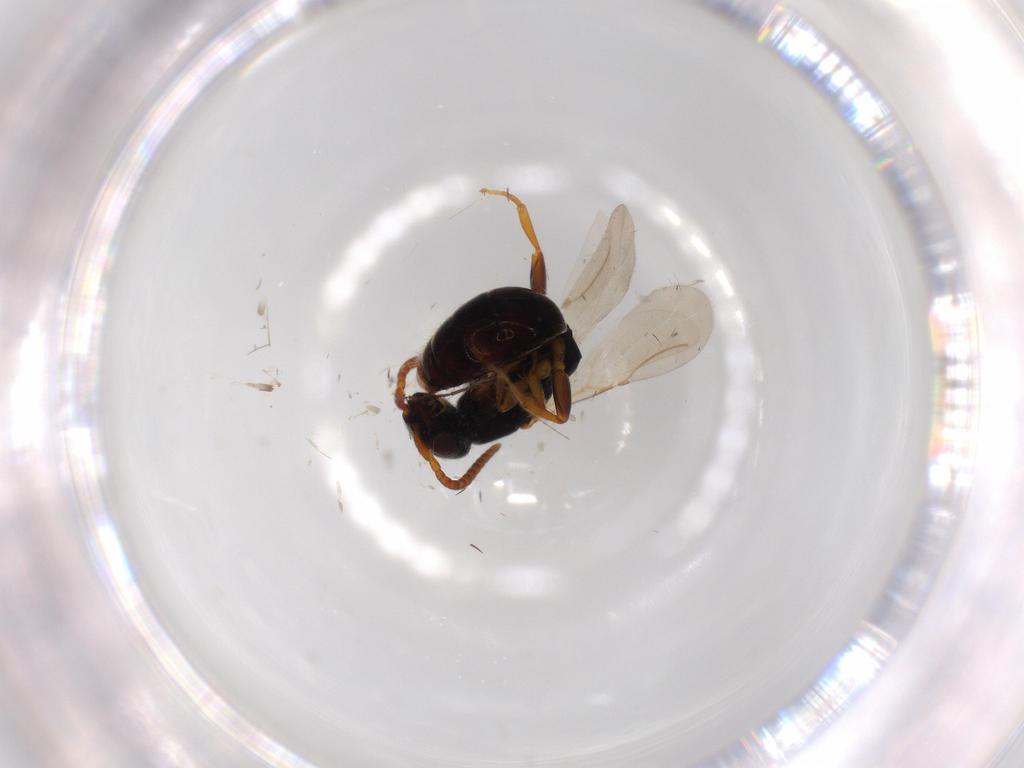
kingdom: Animalia
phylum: Arthropoda
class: Insecta
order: Hymenoptera
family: Bethylidae
